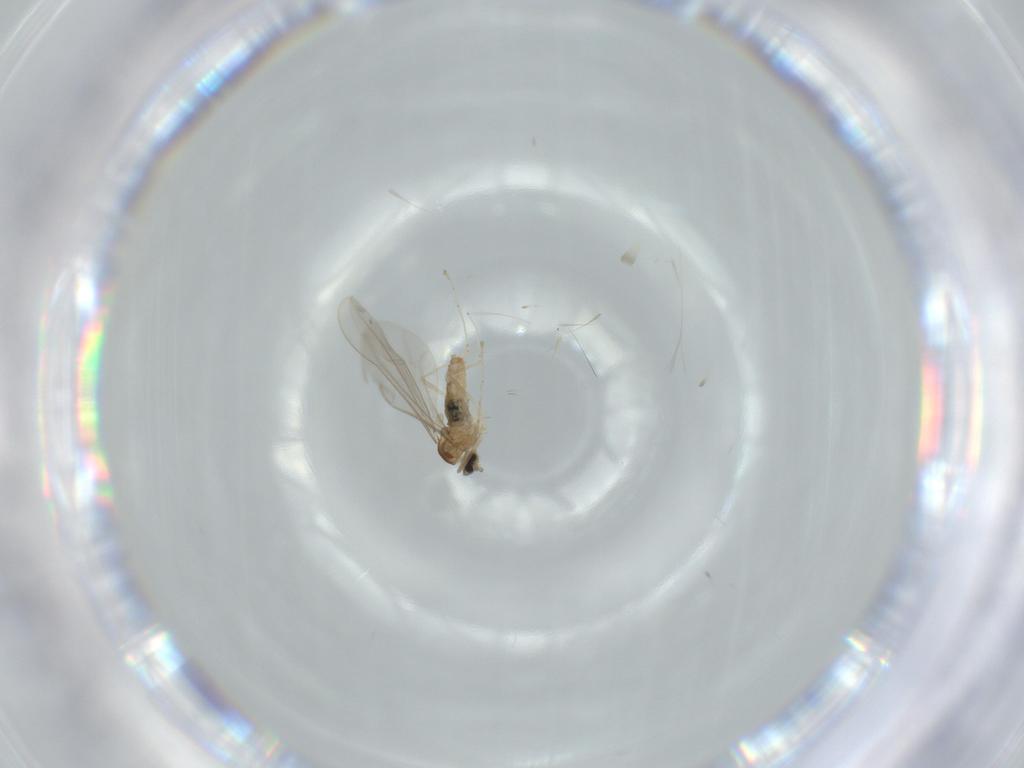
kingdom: Animalia
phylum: Arthropoda
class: Insecta
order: Diptera
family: Cecidomyiidae
